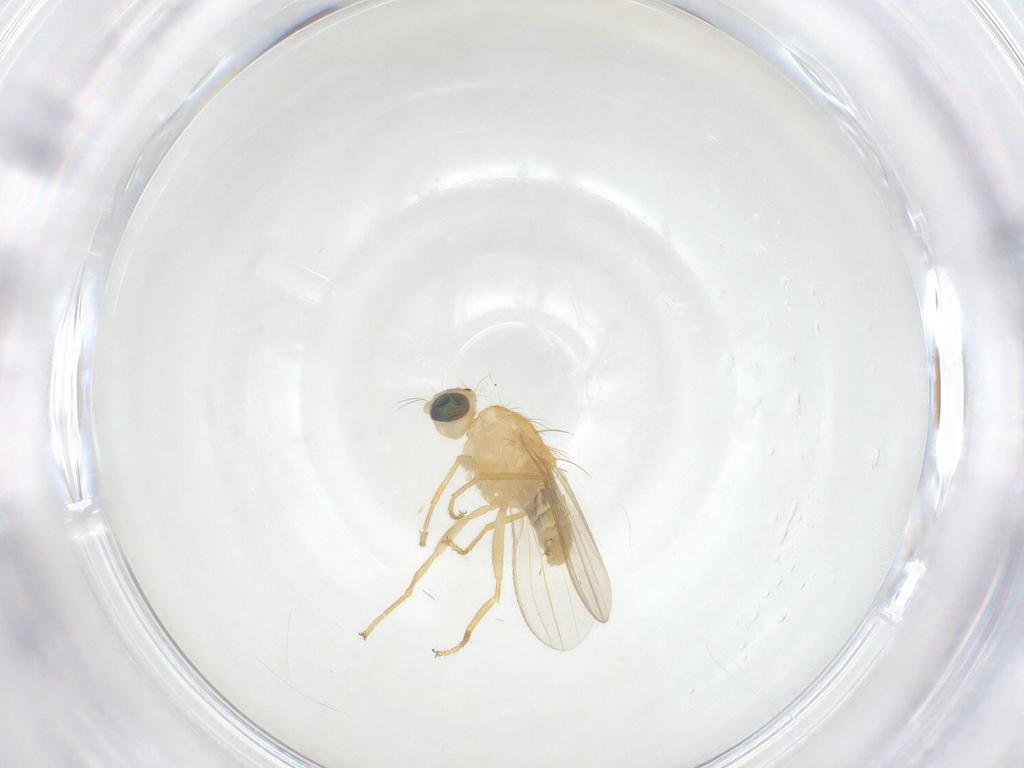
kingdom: Animalia
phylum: Arthropoda
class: Insecta
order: Diptera
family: Chyromyidae
